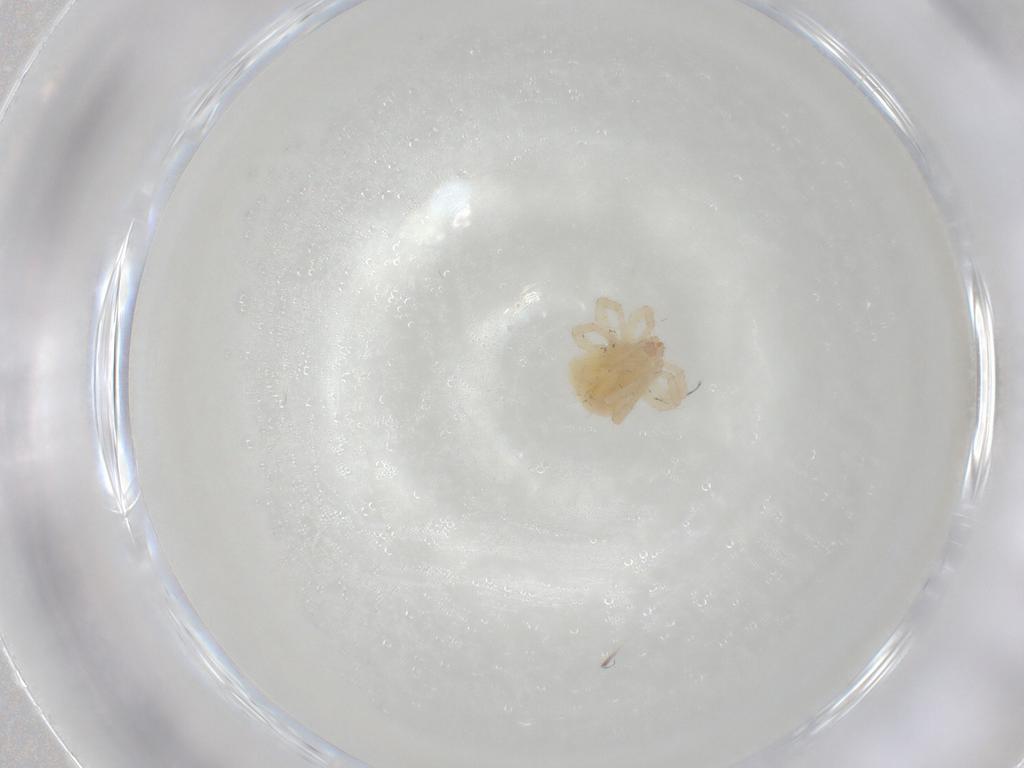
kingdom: Animalia
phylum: Arthropoda
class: Arachnida
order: Trombidiformes
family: Anystidae
